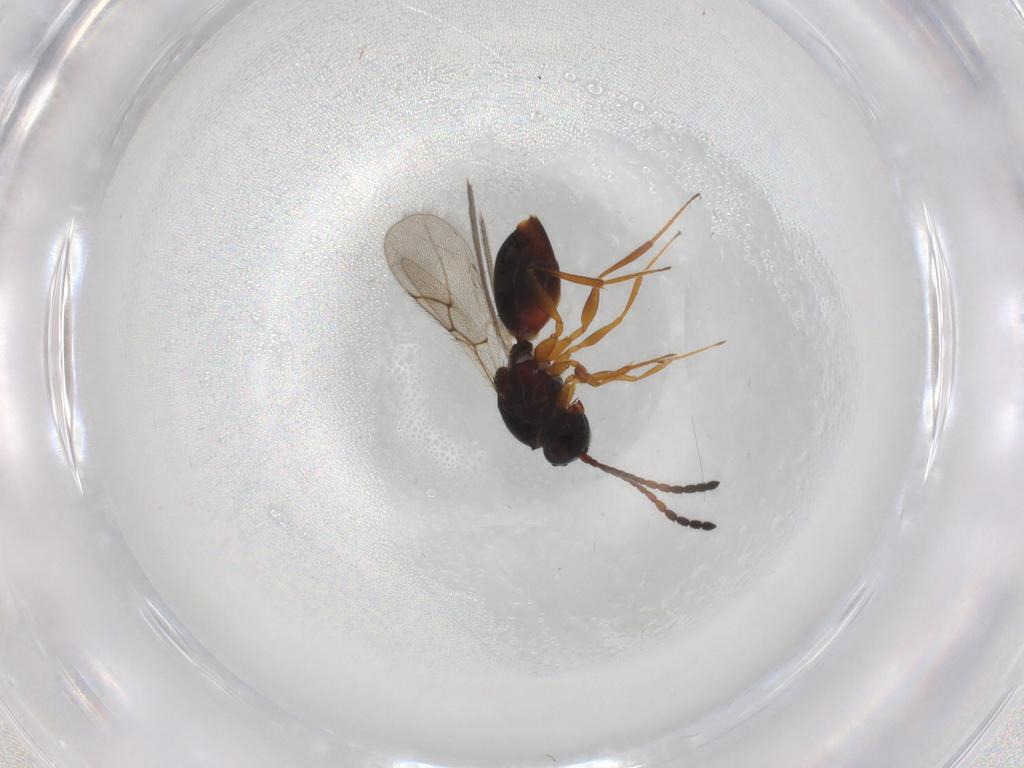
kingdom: Animalia
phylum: Arthropoda
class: Insecta
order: Hymenoptera
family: Figitidae
